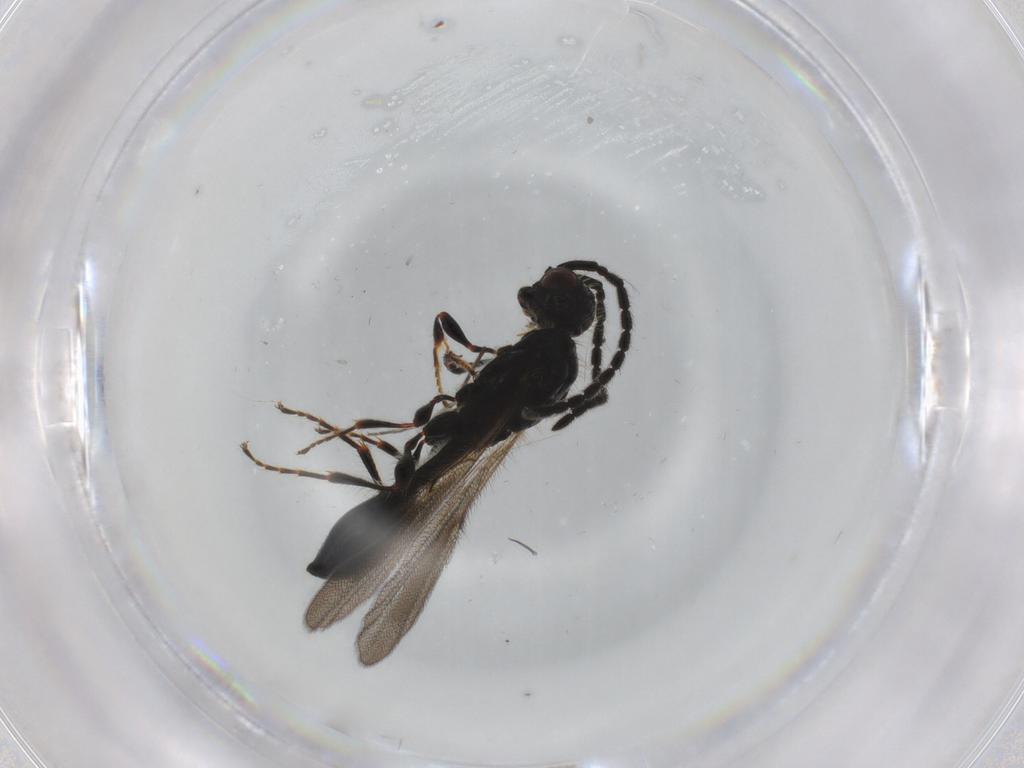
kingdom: Animalia
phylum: Arthropoda
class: Insecta
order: Hymenoptera
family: Diapriidae
